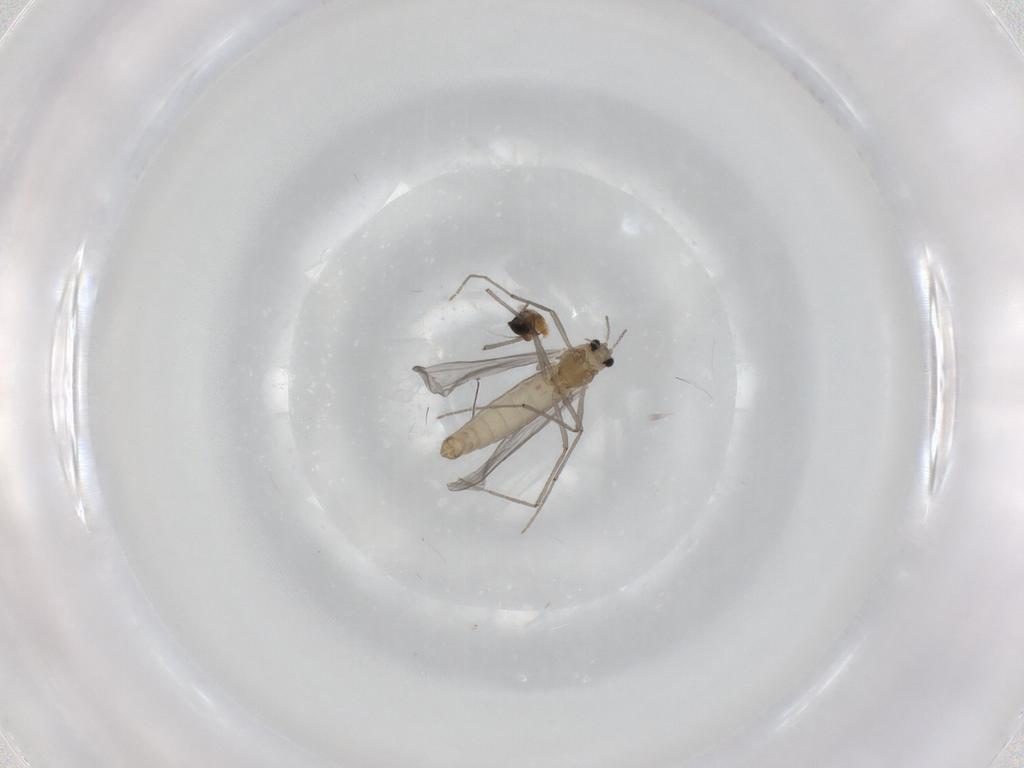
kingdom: Animalia
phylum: Arthropoda
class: Insecta
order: Diptera
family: Chironomidae
